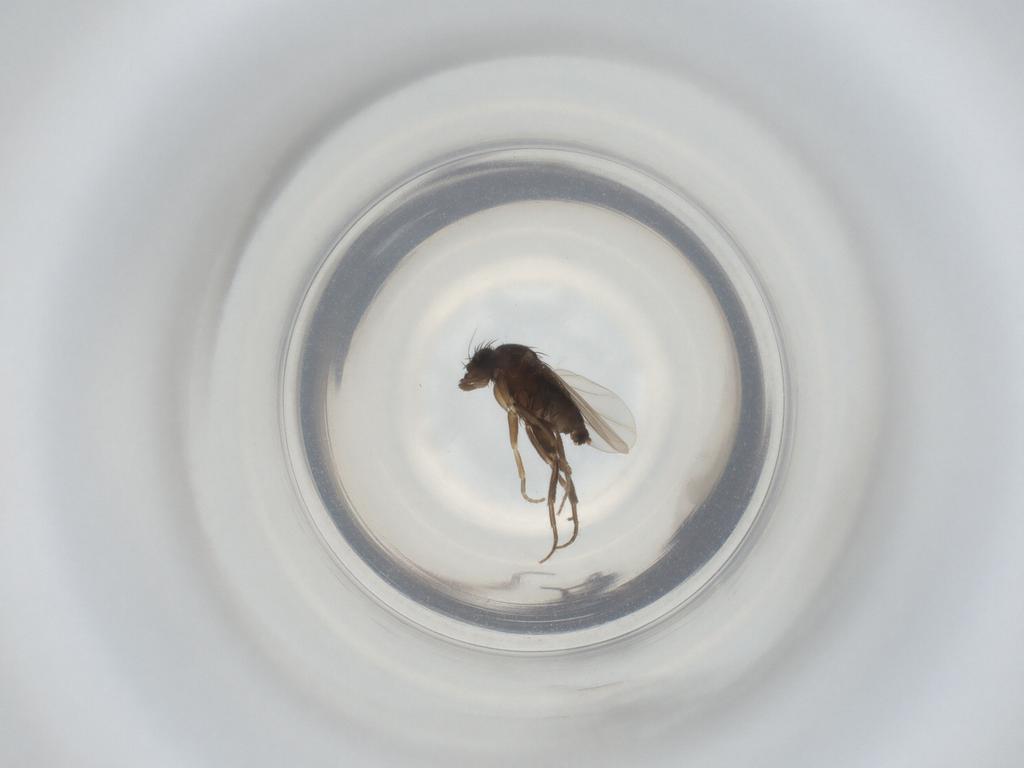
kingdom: Animalia
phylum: Arthropoda
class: Insecta
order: Diptera
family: Phoridae
